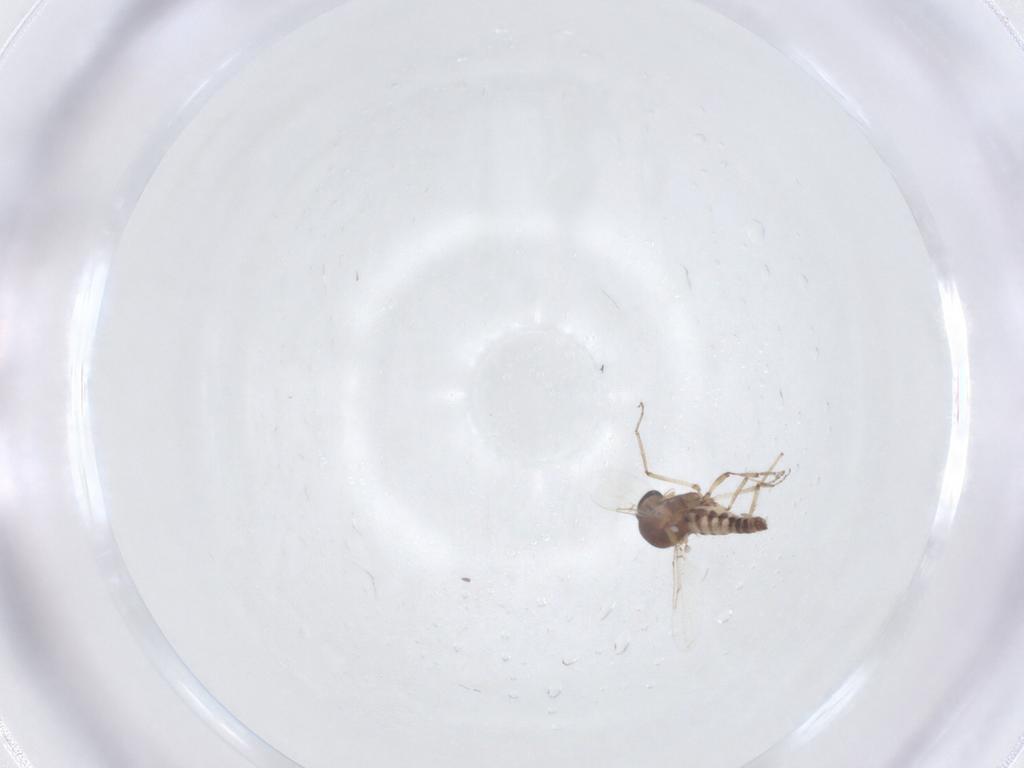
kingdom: Animalia
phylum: Arthropoda
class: Insecta
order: Diptera
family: Ceratopogonidae
